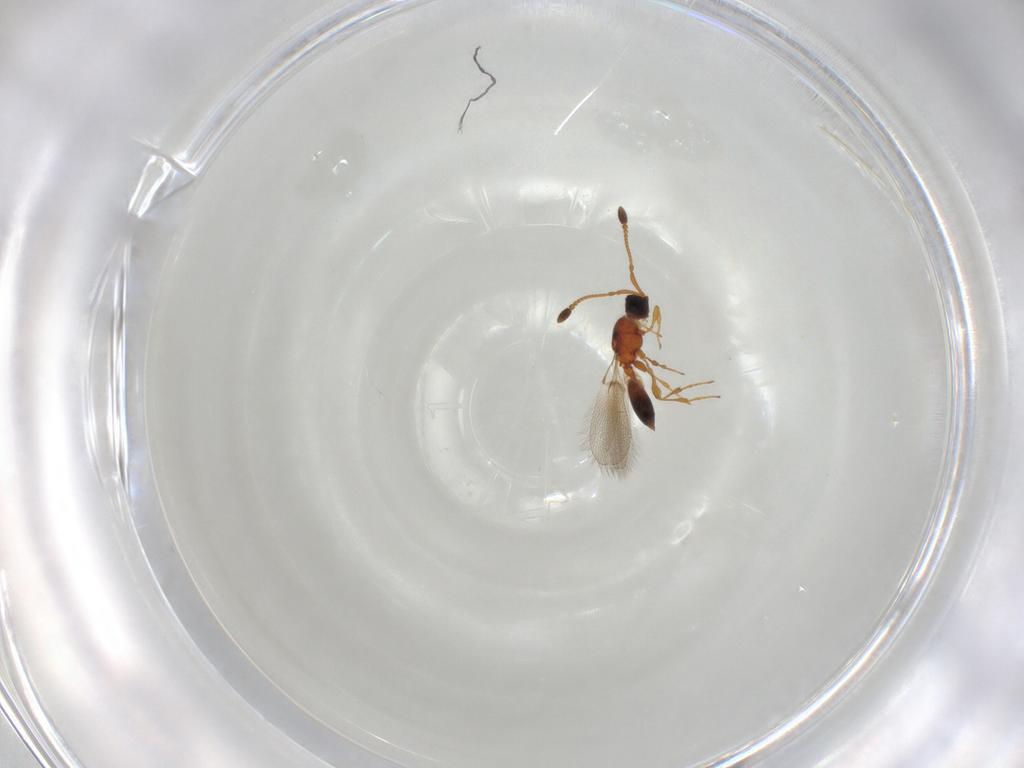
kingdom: Animalia
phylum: Arthropoda
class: Insecta
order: Hymenoptera
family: Diapriidae
